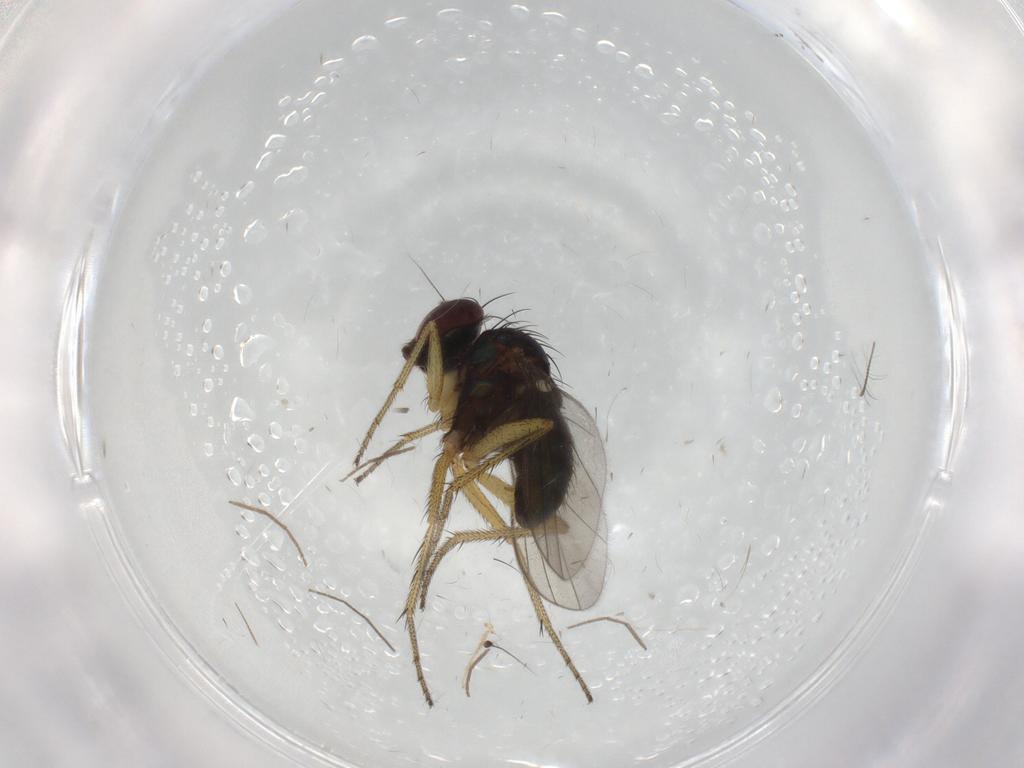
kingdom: Animalia
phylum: Arthropoda
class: Insecta
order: Diptera
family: Chironomidae
